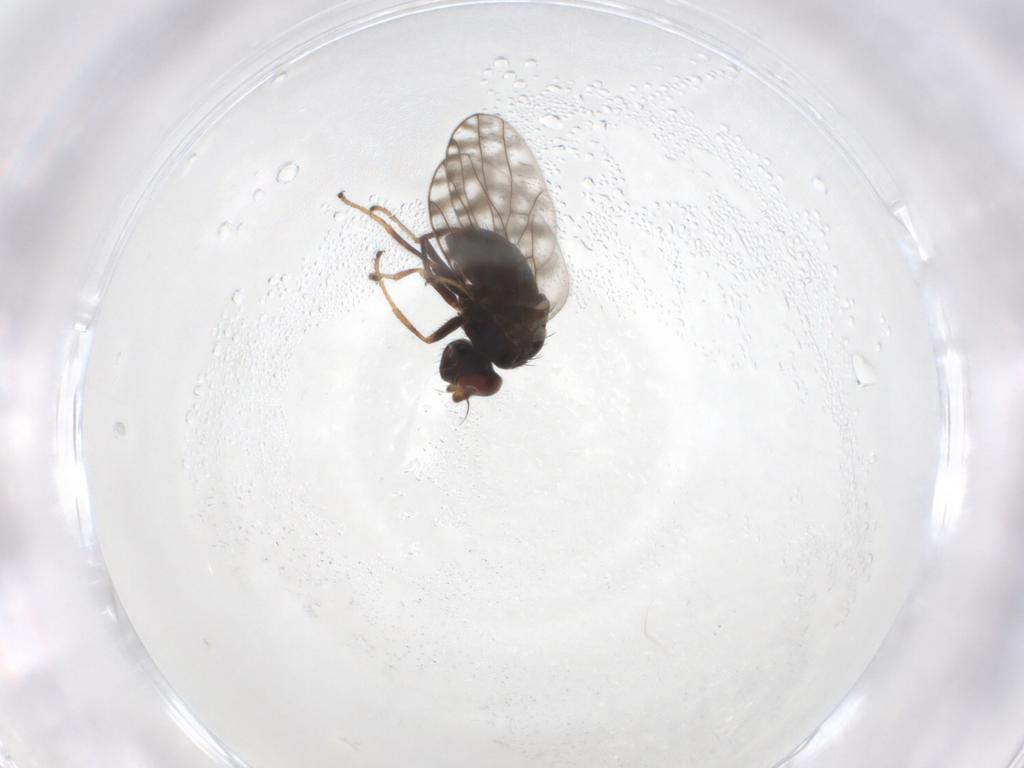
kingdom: Animalia
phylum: Arthropoda
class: Insecta
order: Diptera
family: Ephydridae
